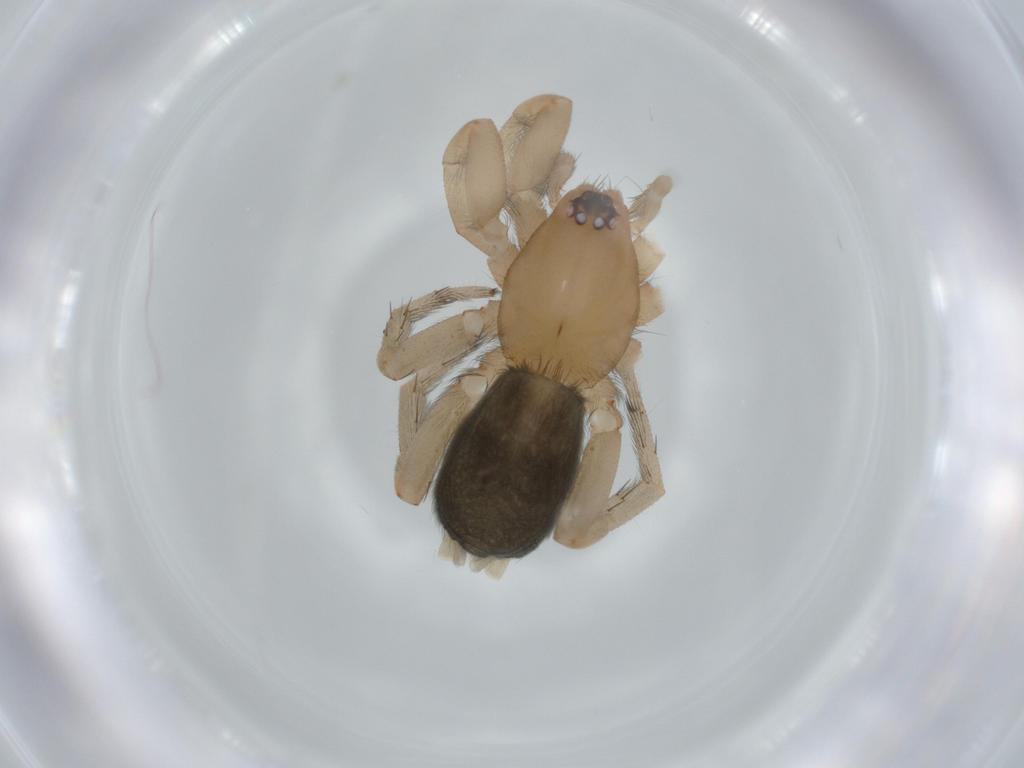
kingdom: Animalia
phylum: Arthropoda
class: Arachnida
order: Araneae
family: Gnaphosidae
